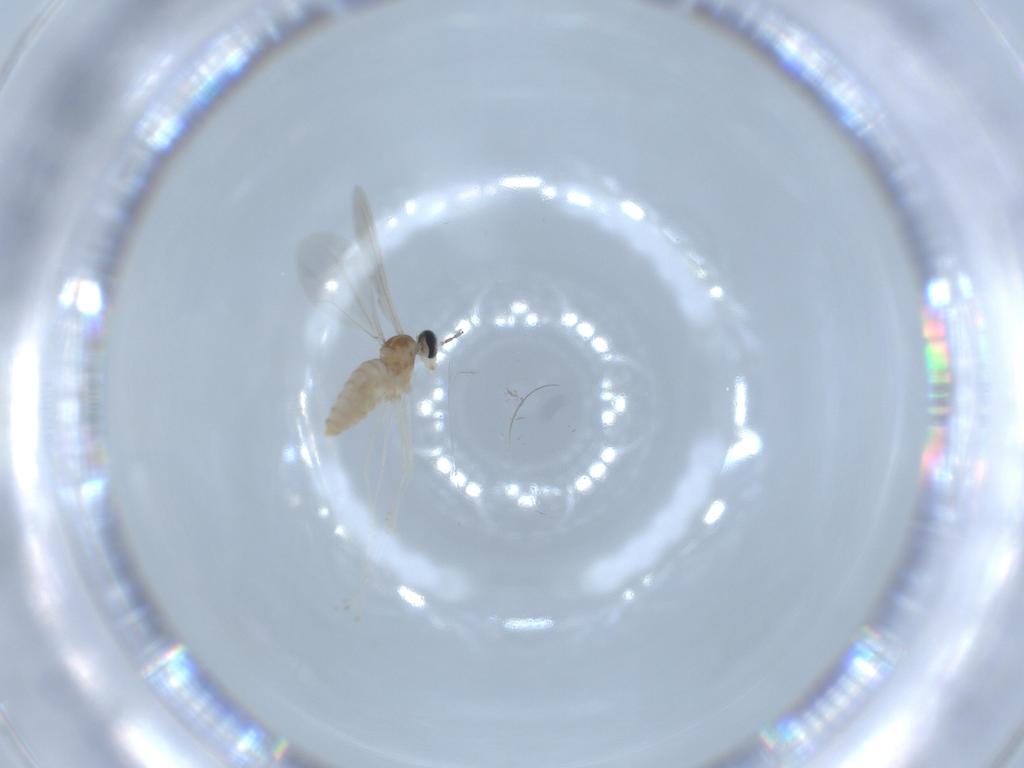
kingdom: Animalia
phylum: Arthropoda
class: Insecta
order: Diptera
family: Cecidomyiidae
